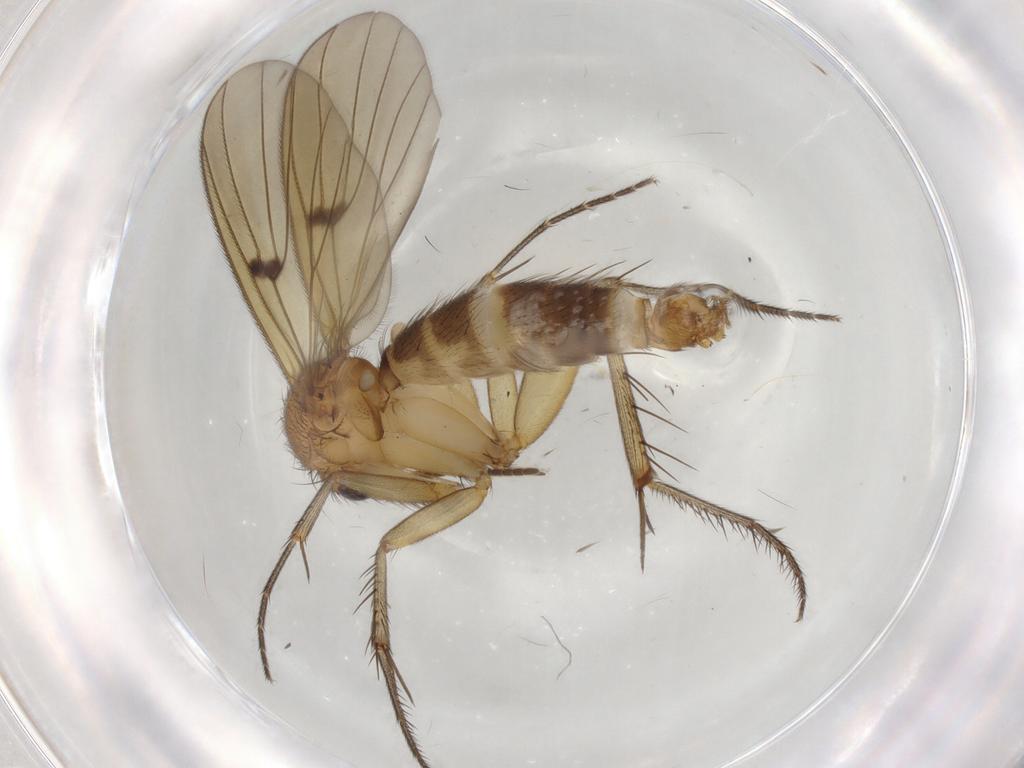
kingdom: Animalia
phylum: Arthropoda
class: Insecta
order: Diptera
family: Mycetophilidae
